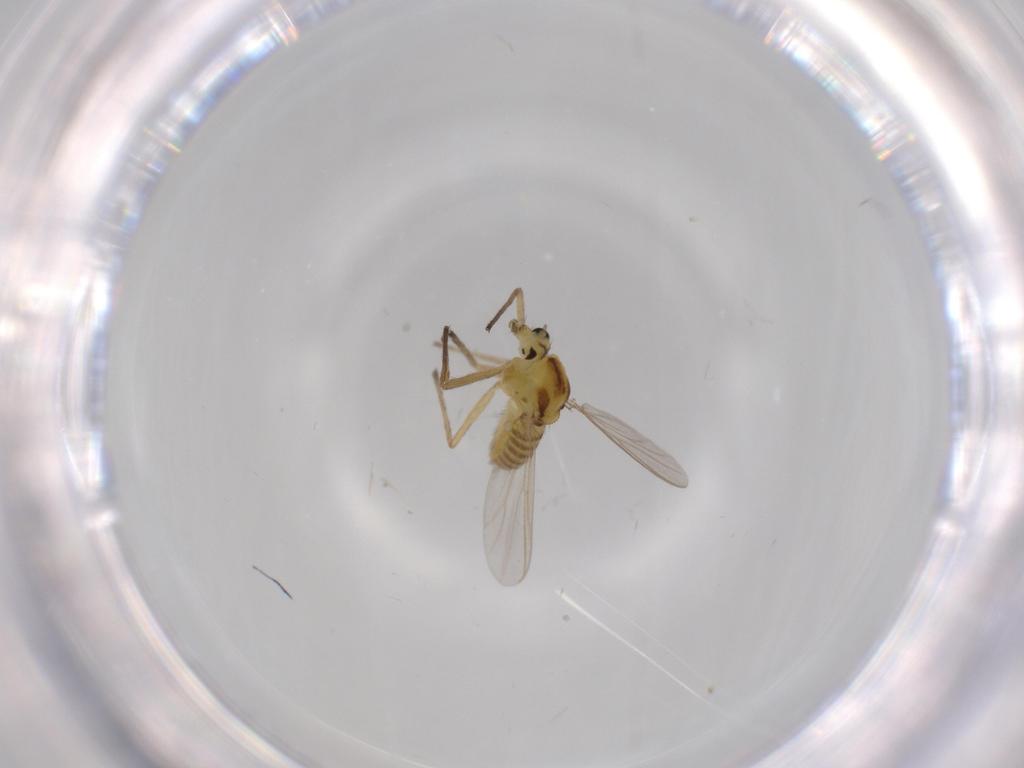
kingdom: Animalia
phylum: Arthropoda
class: Insecta
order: Diptera
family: Chironomidae
